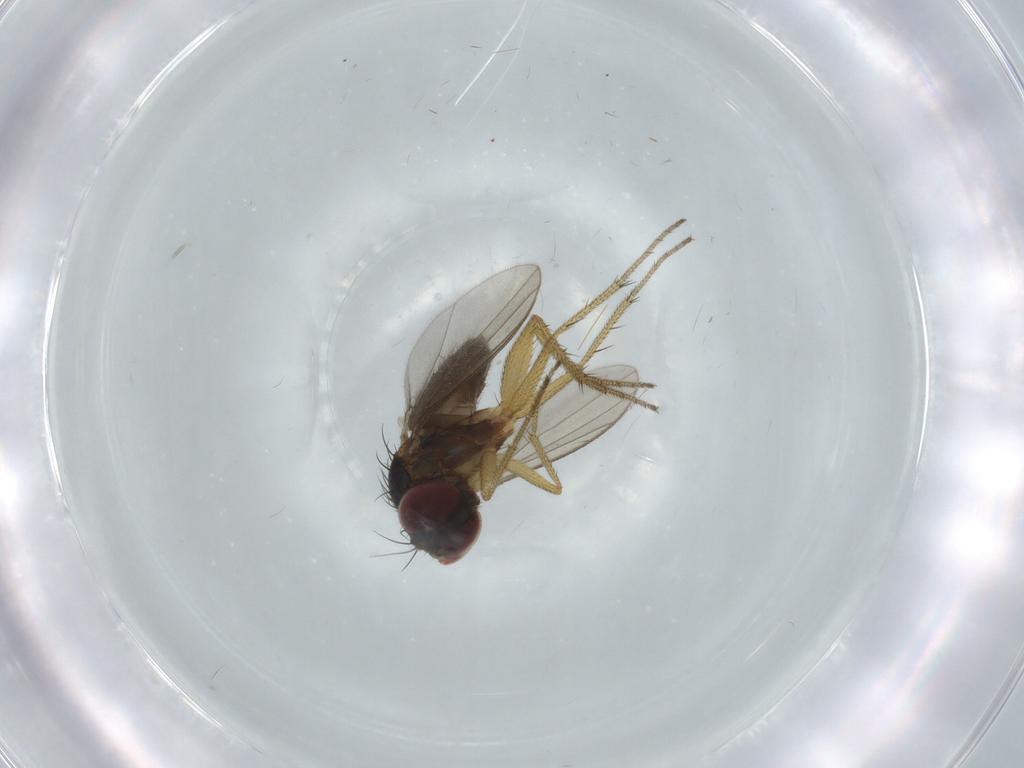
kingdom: Animalia
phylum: Arthropoda
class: Insecta
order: Diptera
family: Dolichopodidae
